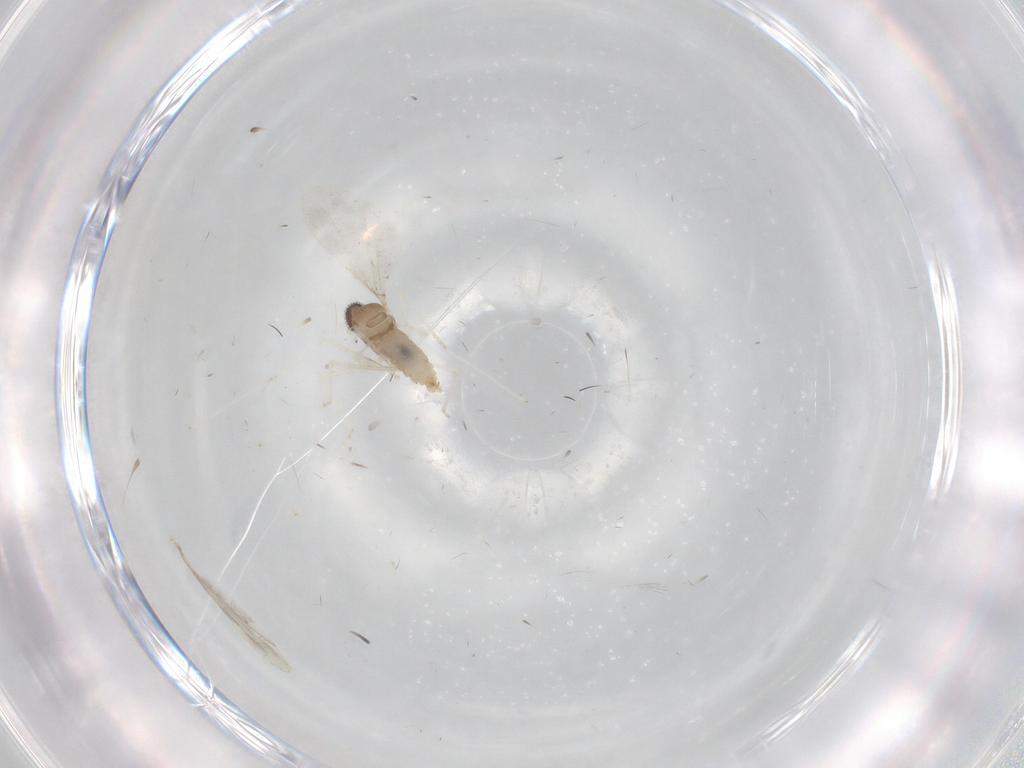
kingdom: Animalia
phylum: Arthropoda
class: Insecta
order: Diptera
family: Cecidomyiidae
